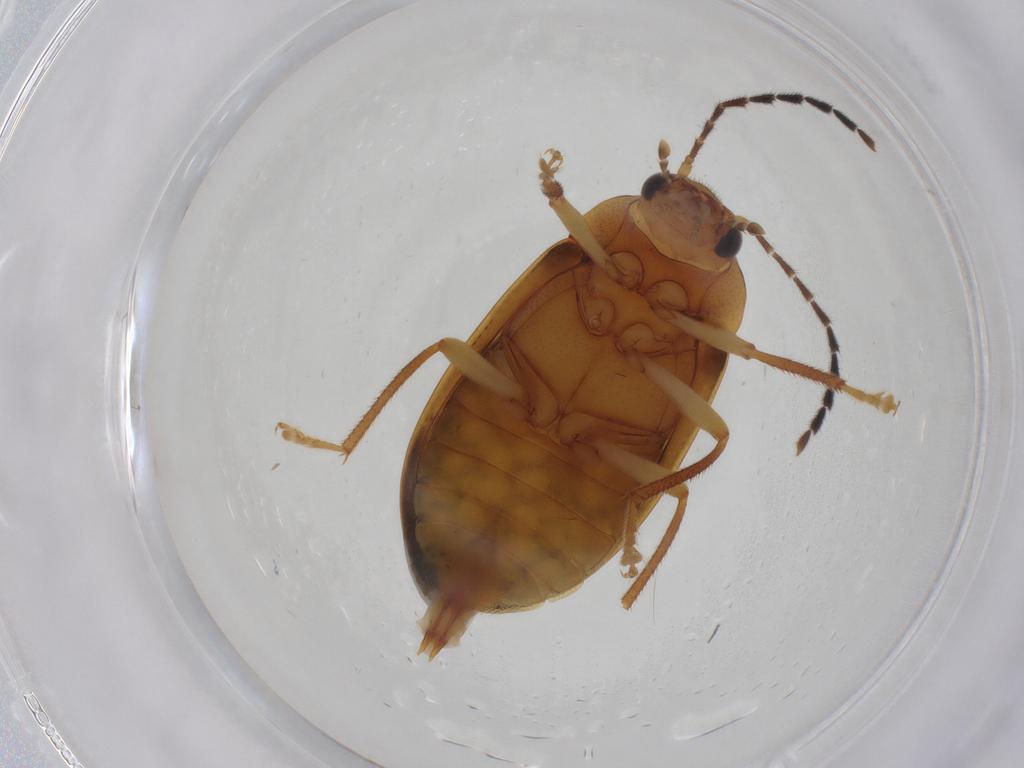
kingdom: Animalia
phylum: Arthropoda
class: Insecta
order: Coleoptera
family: Ptilodactylidae
